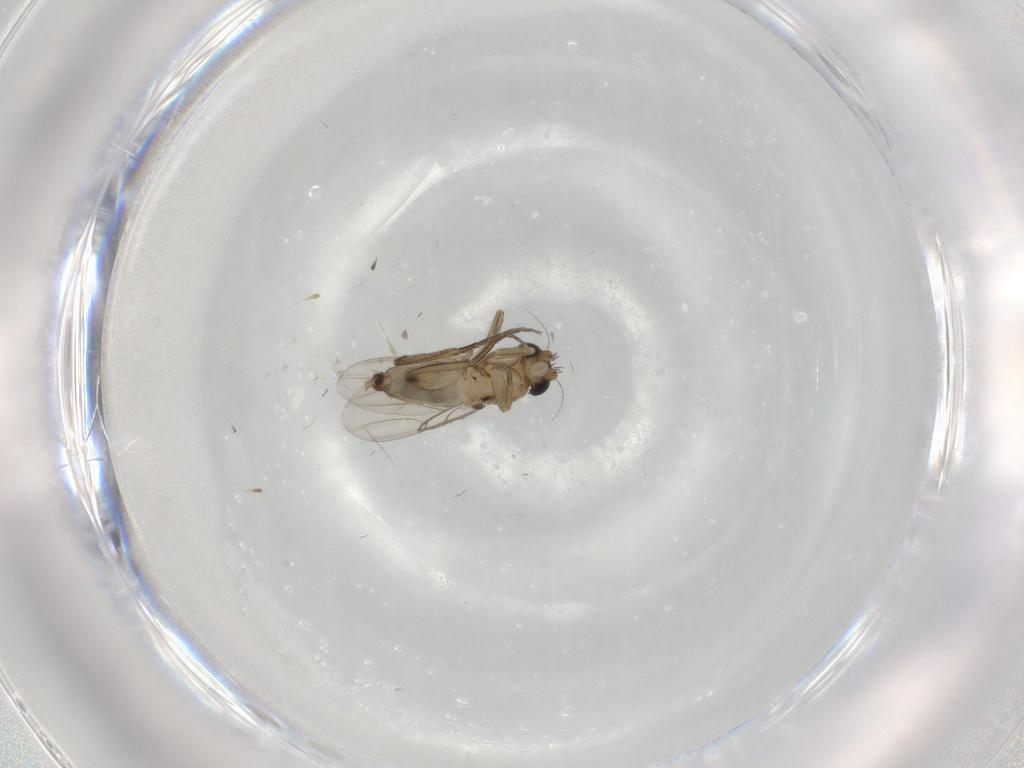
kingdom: Animalia
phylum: Arthropoda
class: Insecta
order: Diptera
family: Phoridae
